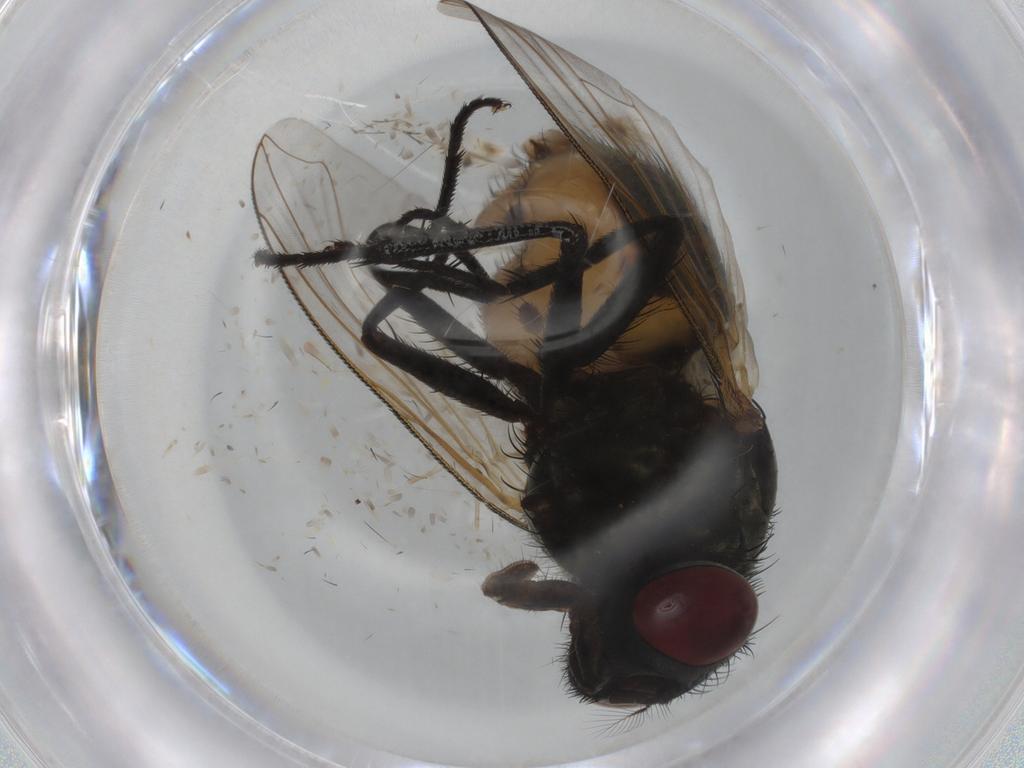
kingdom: Animalia
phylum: Arthropoda
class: Insecta
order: Diptera
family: Muscidae
